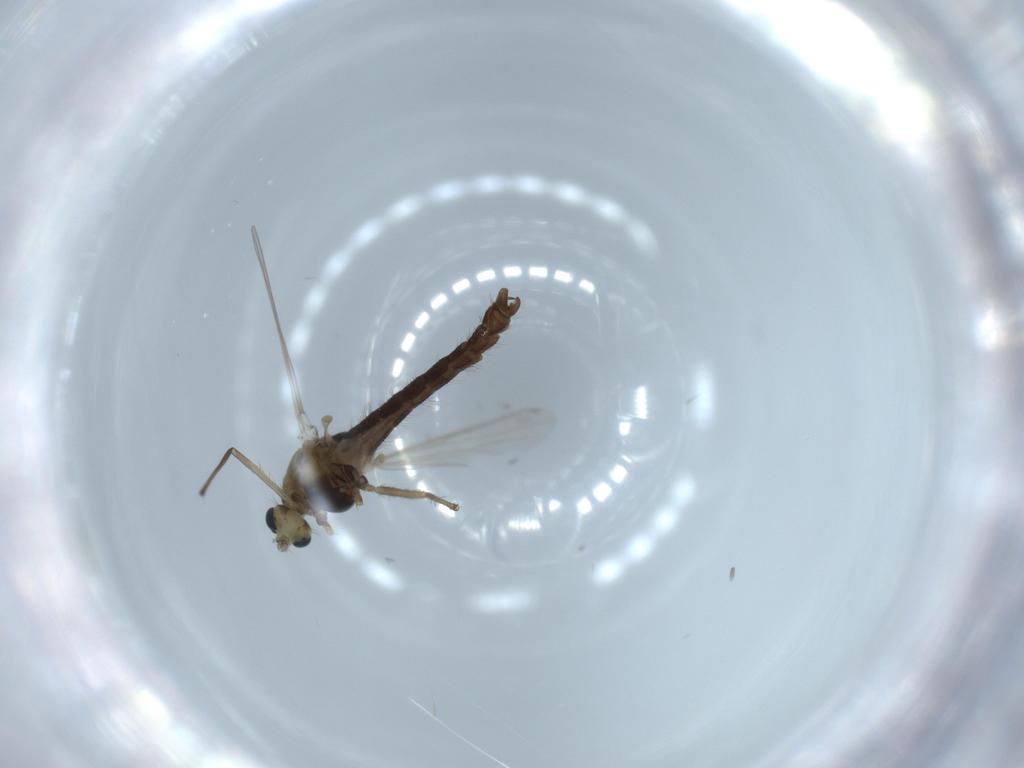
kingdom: Animalia
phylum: Arthropoda
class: Insecta
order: Diptera
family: Chironomidae
